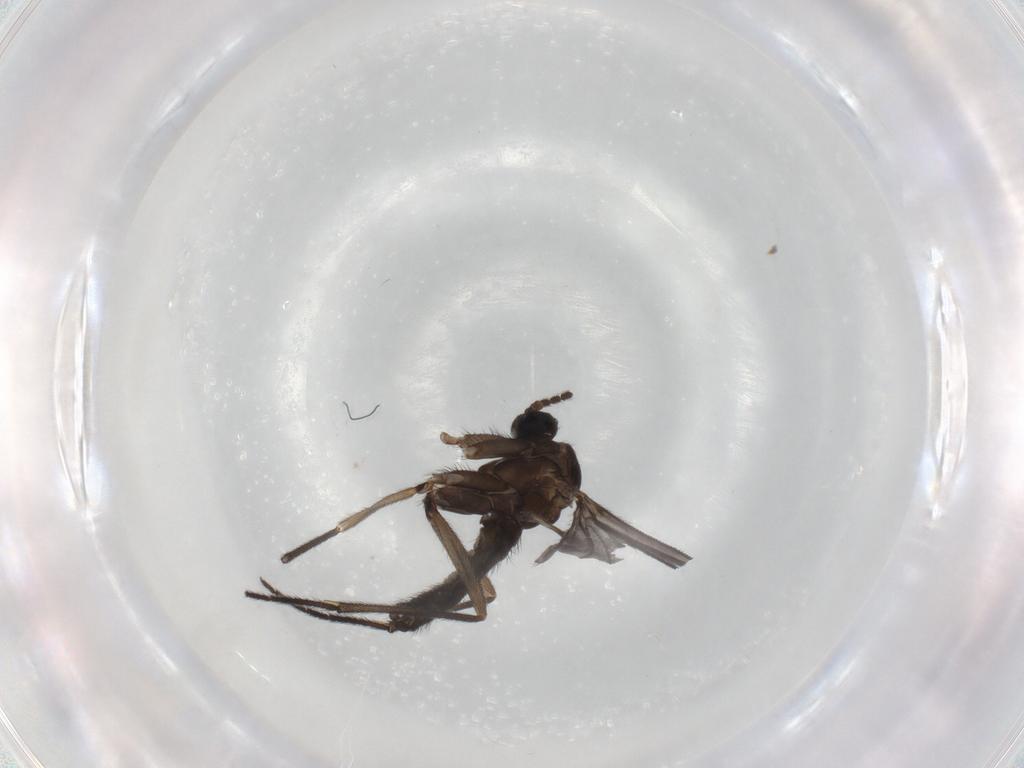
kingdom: Animalia
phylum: Arthropoda
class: Insecta
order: Diptera
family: Sciaridae
